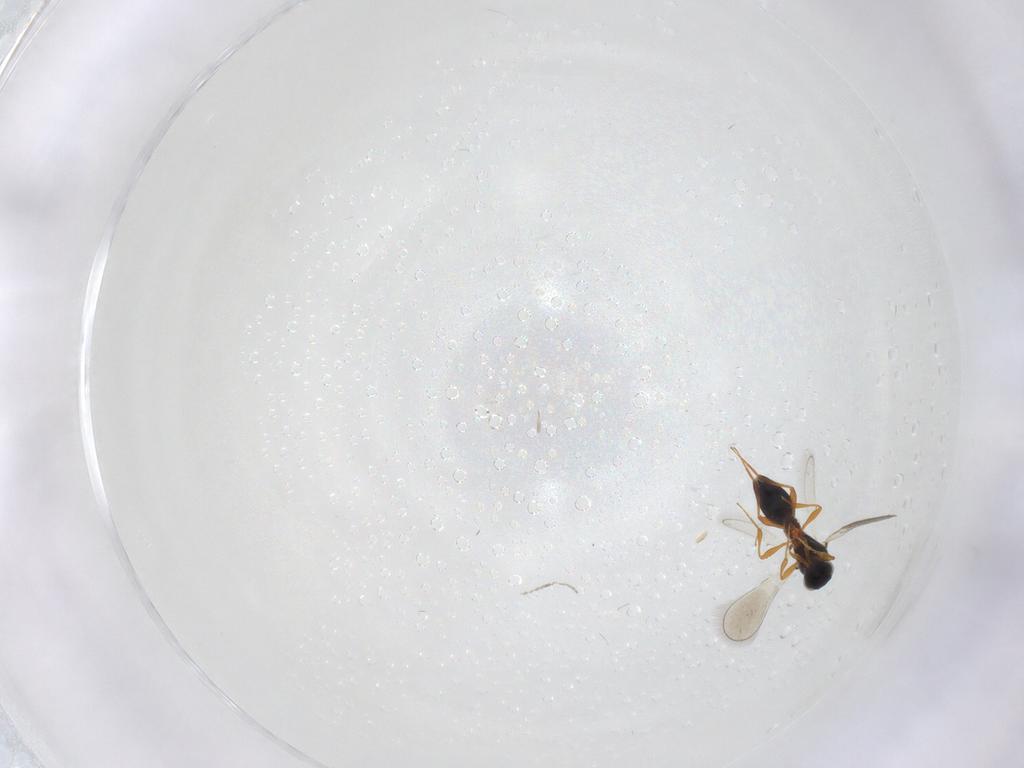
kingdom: Animalia
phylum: Arthropoda
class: Insecta
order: Hymenoptera
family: Platygastridae
